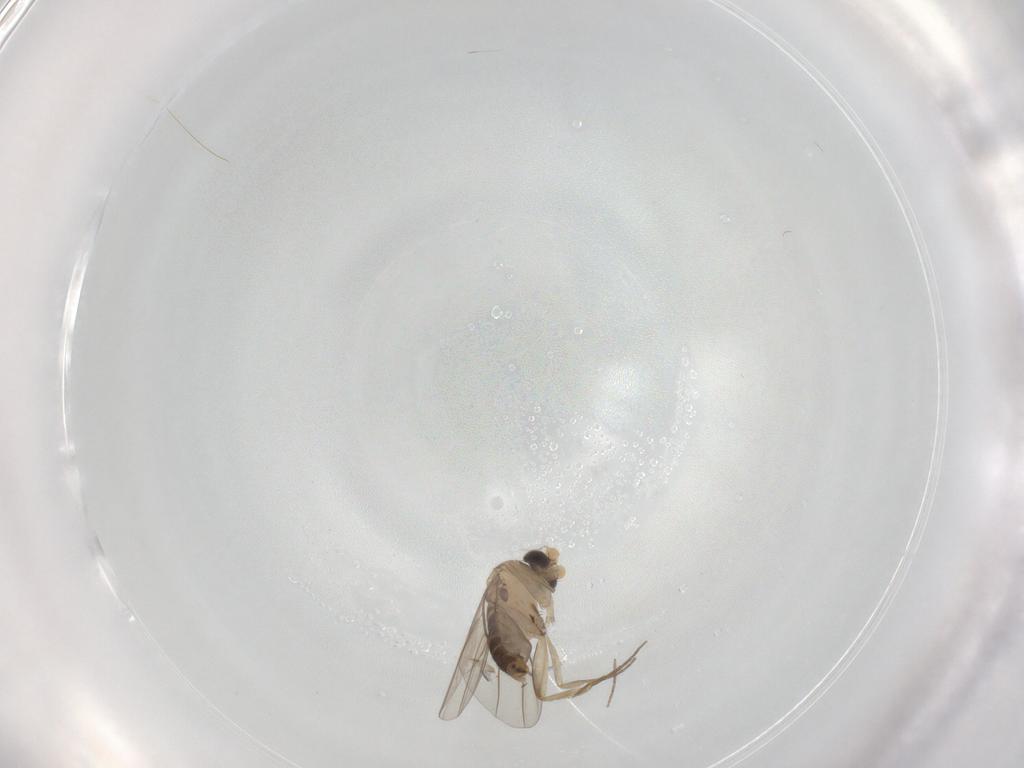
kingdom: Animalia
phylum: Arthropoda
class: Insecta
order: Diptera
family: Phoridae
